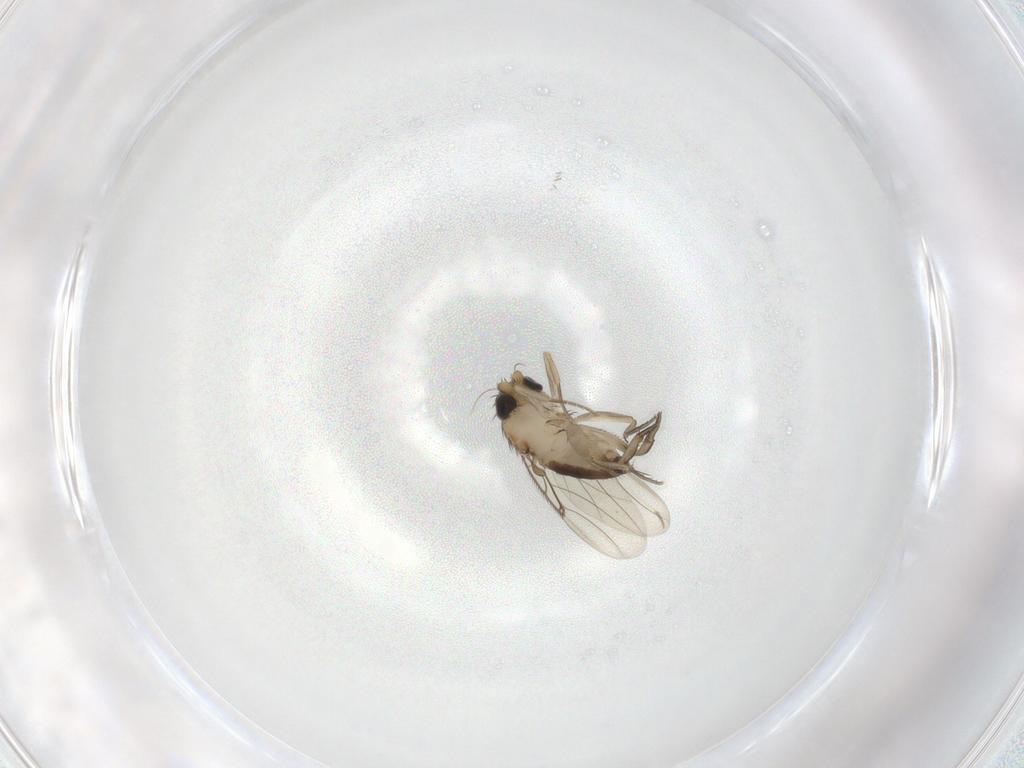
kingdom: Animalia
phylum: Arthropoda
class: Insecta
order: Diptera
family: Phoridae
